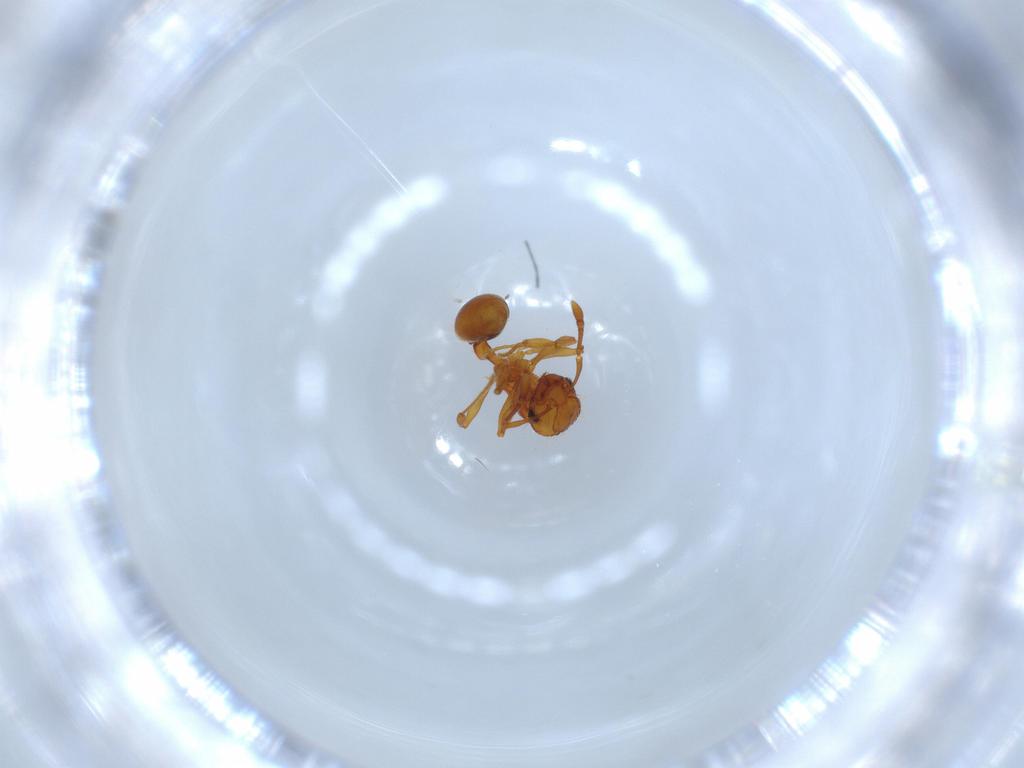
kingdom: Animalia
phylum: Arthropoda
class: Insecta
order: Hymenoptera
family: Formicidae
